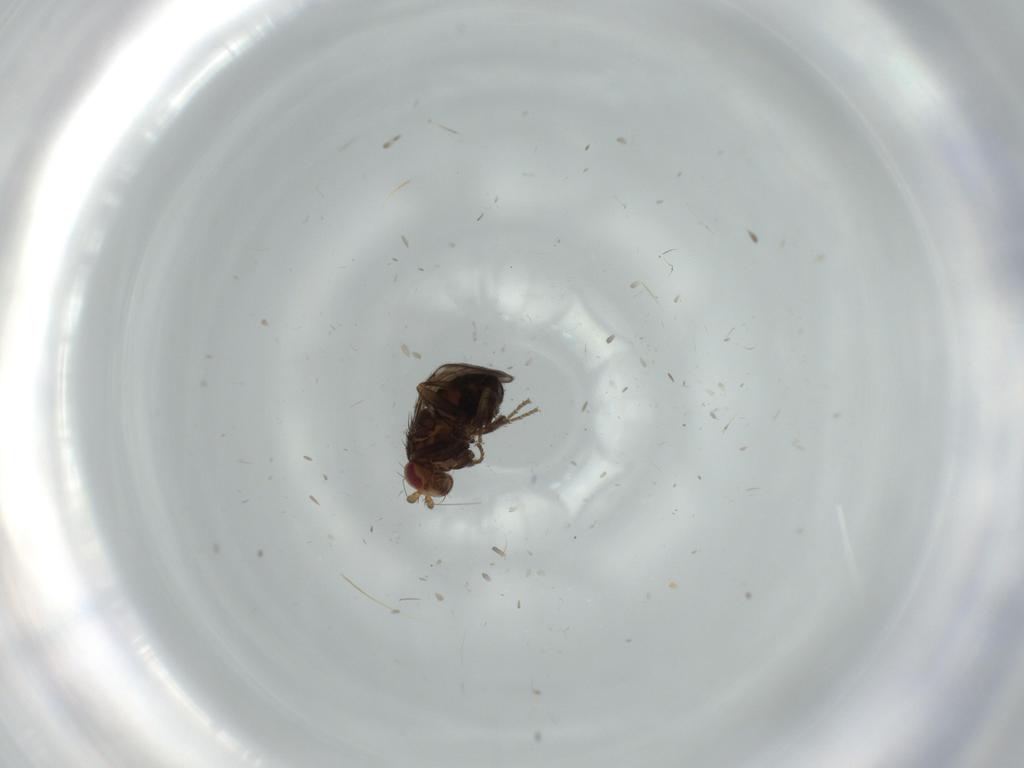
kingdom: Animalia
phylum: Arthropoda
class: Insecta
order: Diptera
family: Sphaeroceridae
